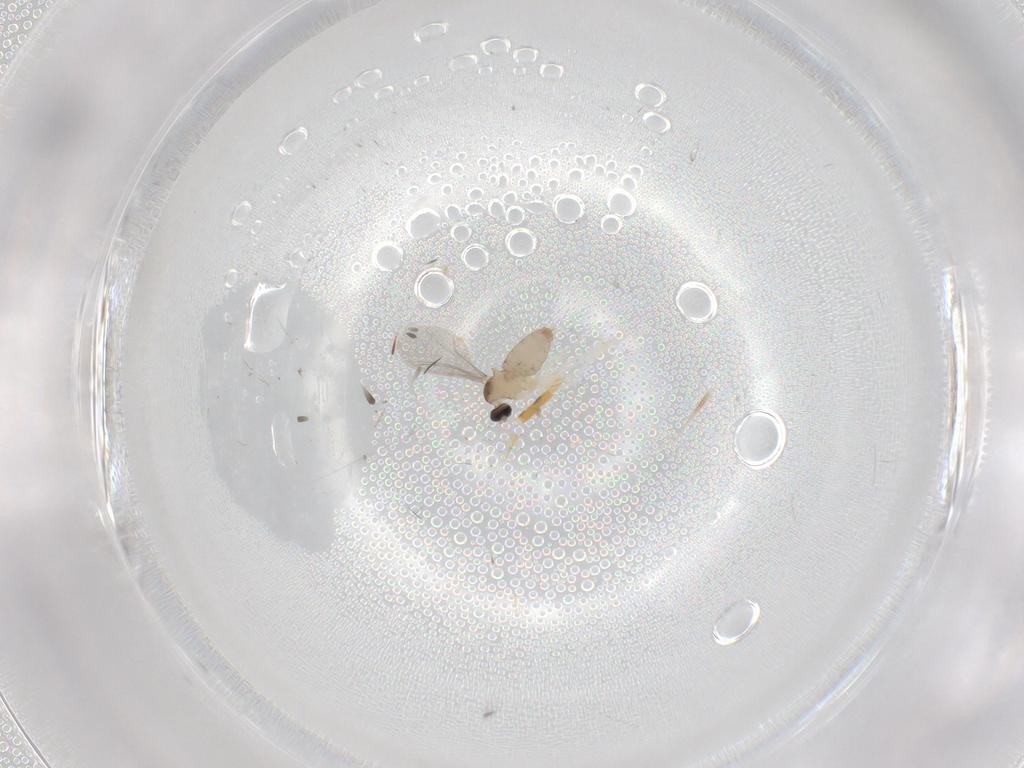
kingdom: Animalia
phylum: Arthropoda
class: Insecta
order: Diptera
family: Cecidomyiidae
